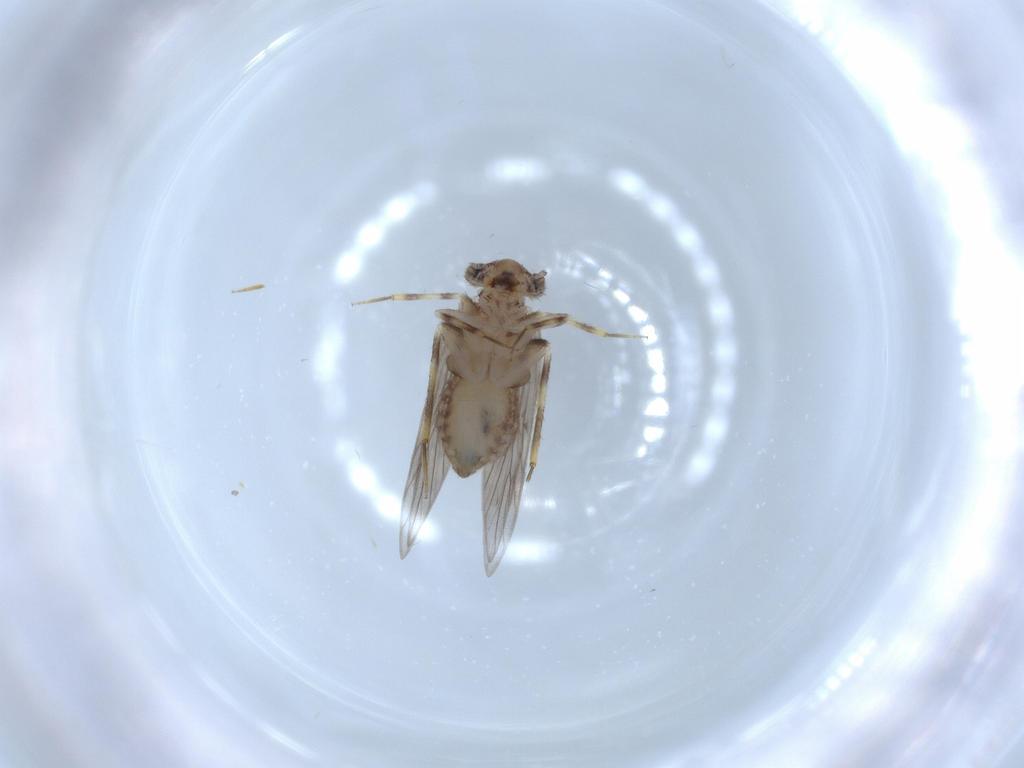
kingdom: Animalia
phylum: Arthropoda
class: Insecta
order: Psocodea
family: Lepidopsocidae
